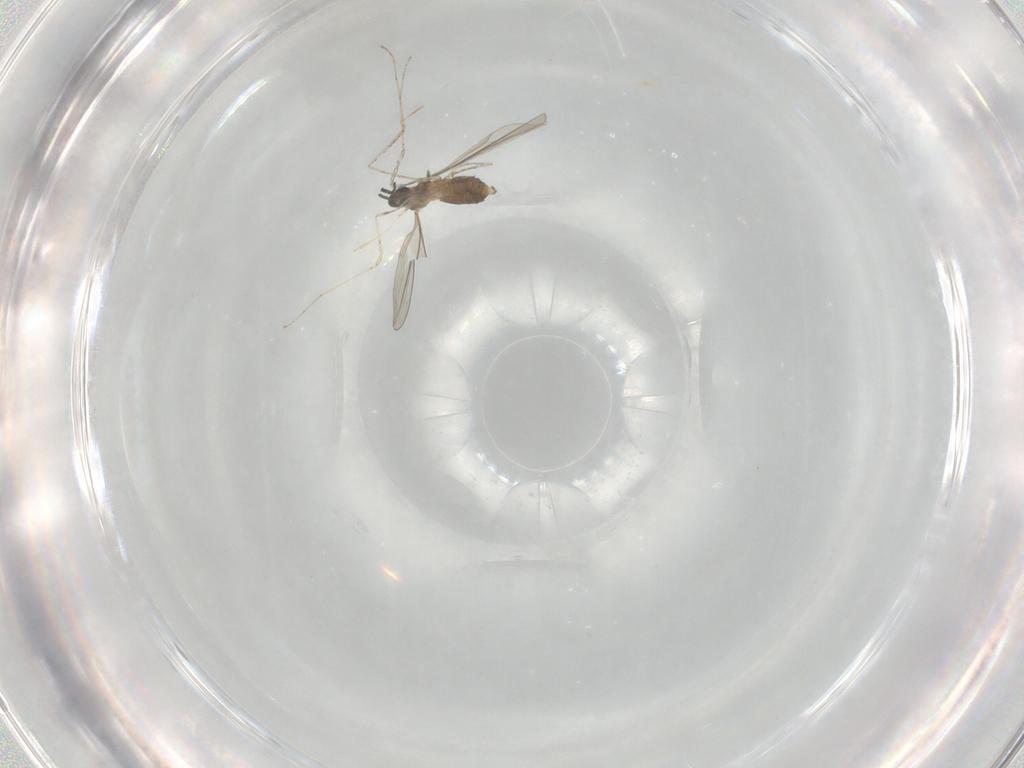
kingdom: Animalia
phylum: Arthropoda
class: Insecta
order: Diptera
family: Cecidomyiidae
